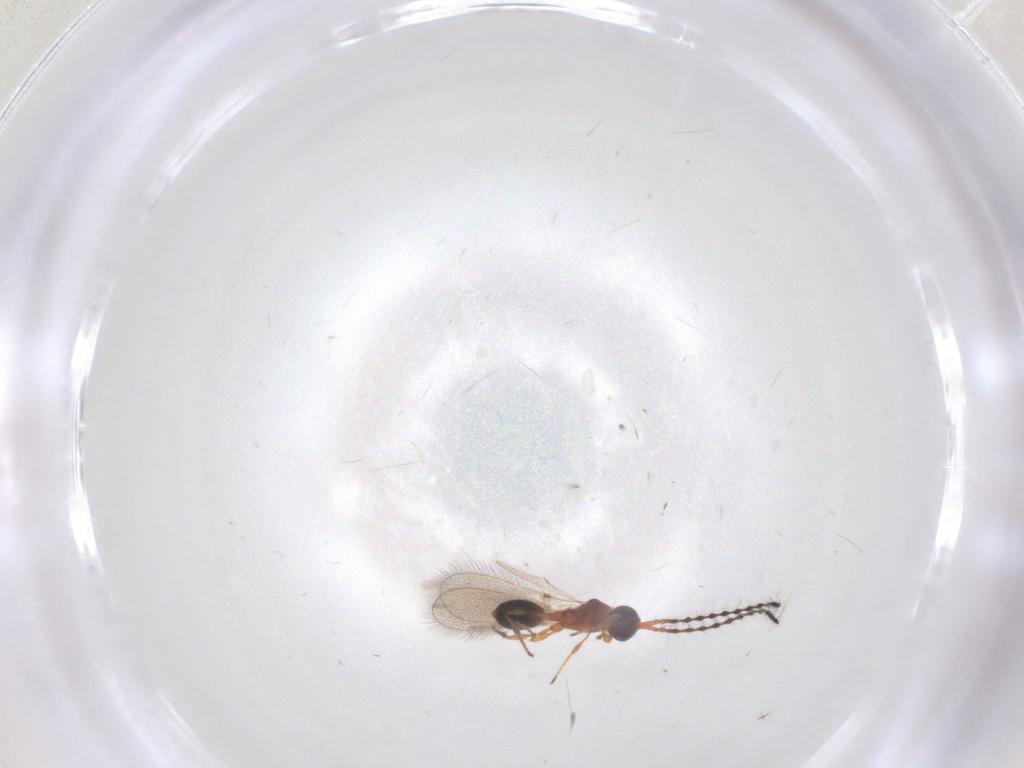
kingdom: Animalia
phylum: Arthropoda
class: Insecta
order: Hymenoptera
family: Diapriidae
